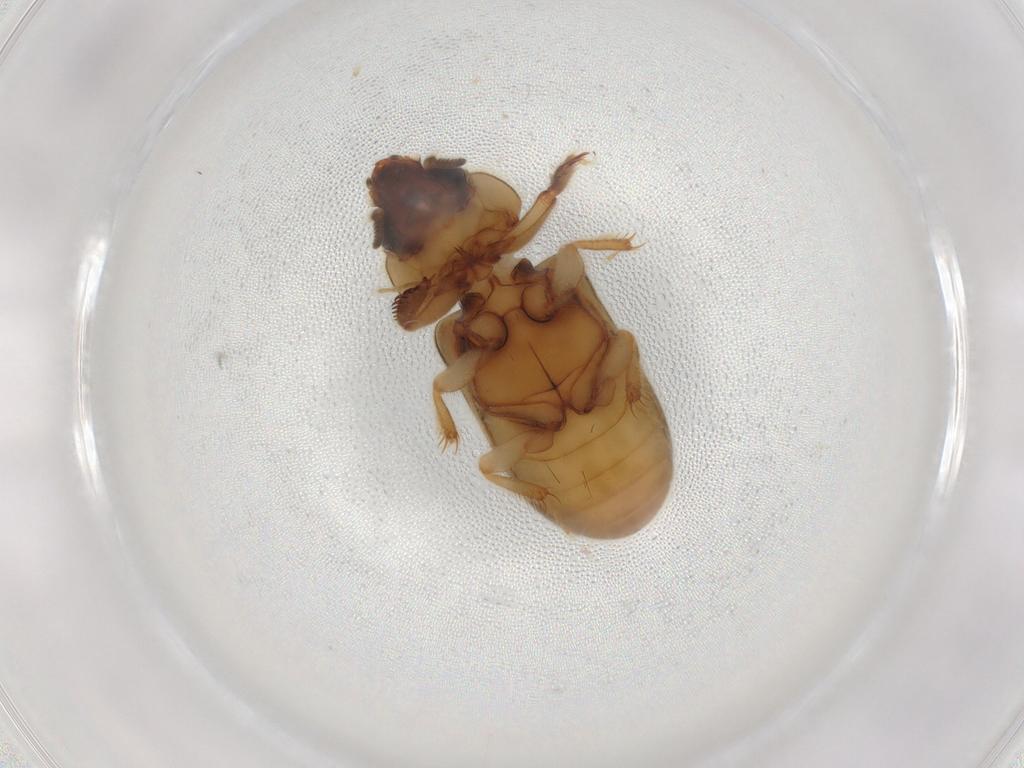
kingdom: Animalia
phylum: Arthropoda
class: Insecta
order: Coleoptera
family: Heteroceridae
